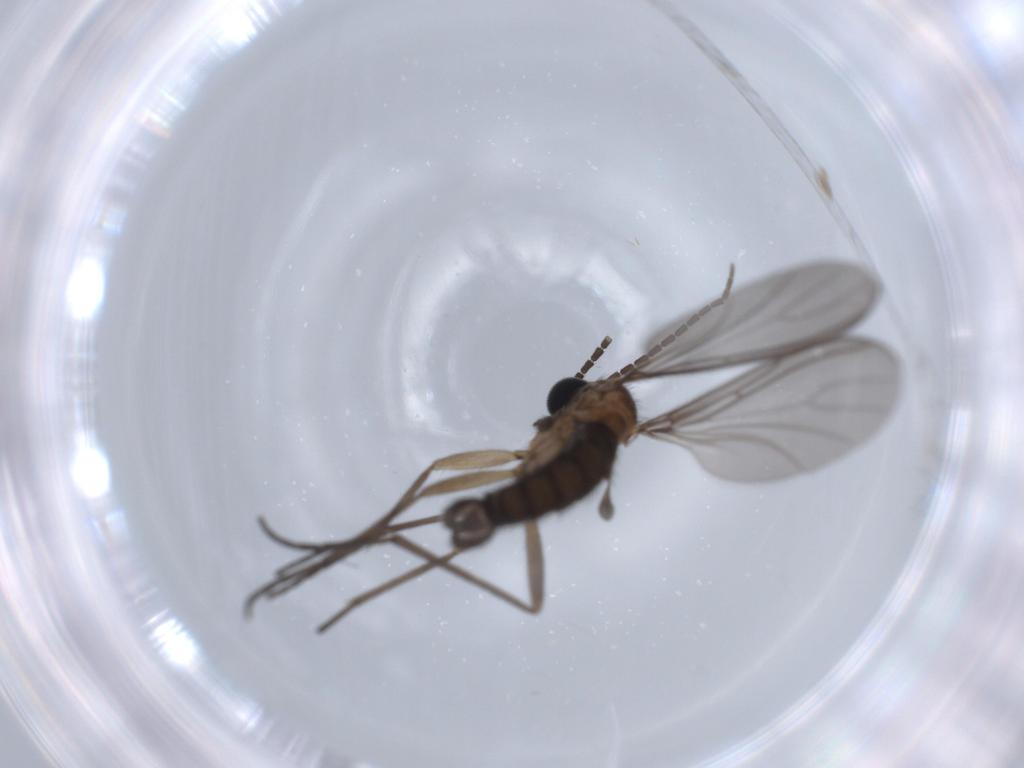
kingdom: Animalia
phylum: Arthropoda
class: Insecta
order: Diptera
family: Sciaridae
